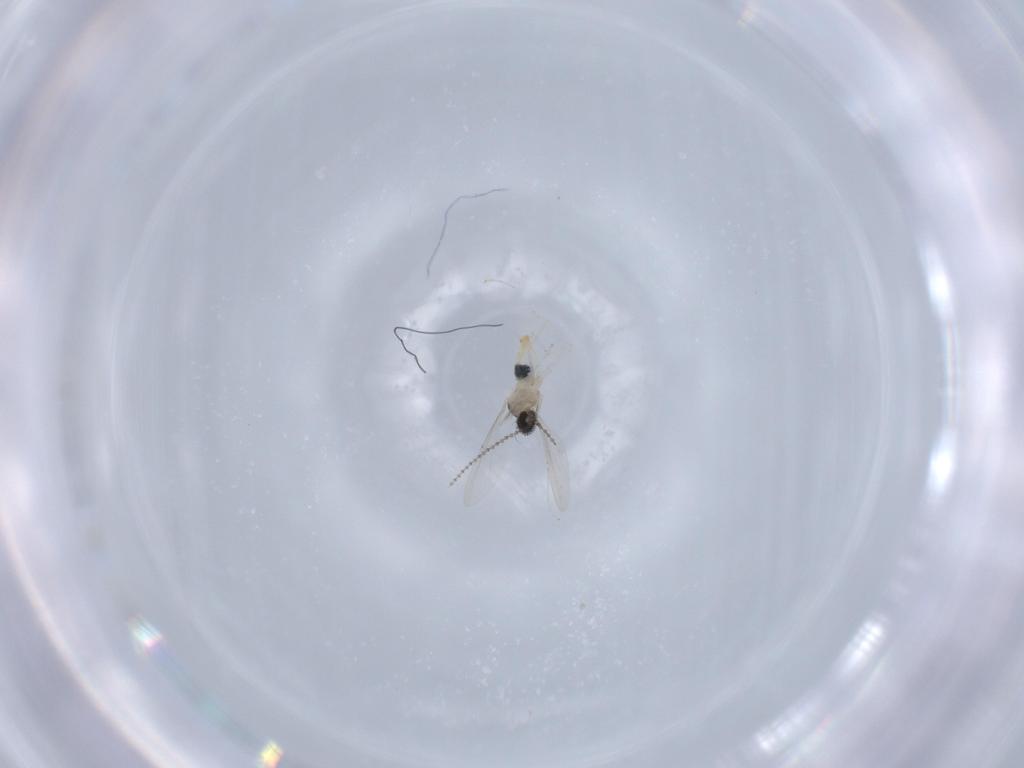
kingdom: Animalia
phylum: Arthropoda
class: Insecta
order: Diptera
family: Cecidomyiidae
